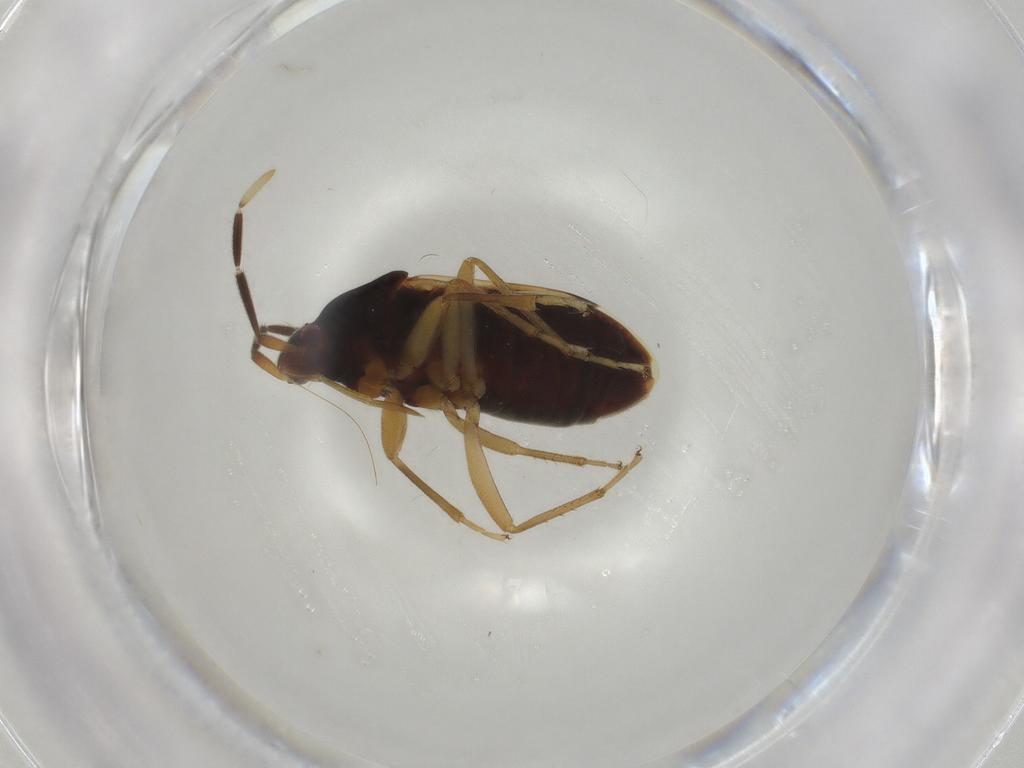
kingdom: Animalia
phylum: Arthropoda
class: Insecta
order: Hemiptera
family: Rhyparochromidae
